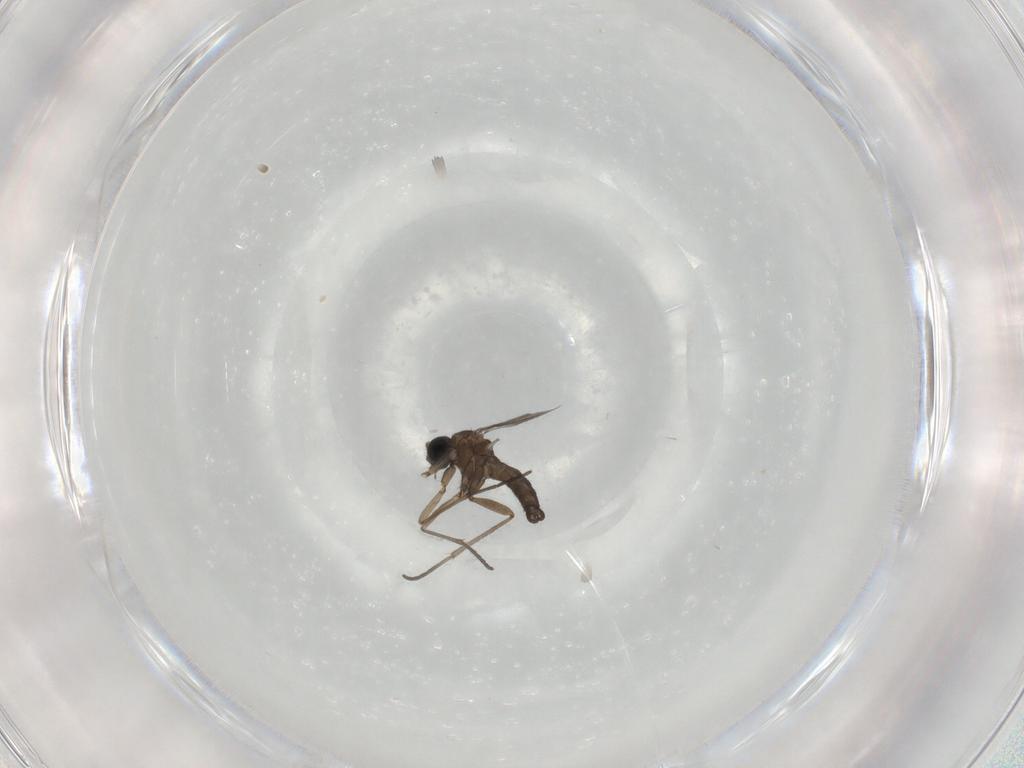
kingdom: Animalia
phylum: Arthropoda
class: Insecta
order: Diptera
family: Sciaridae
